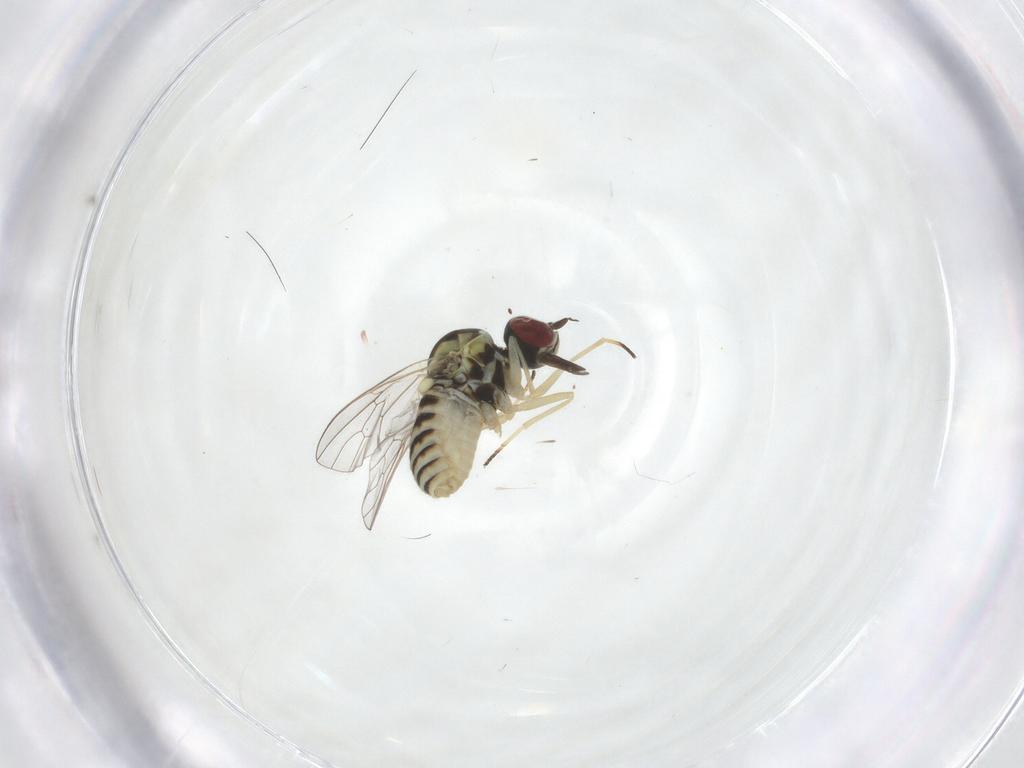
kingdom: Animalia
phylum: Arthropoda
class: Insecta
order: Diptera
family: Bombyliidae
